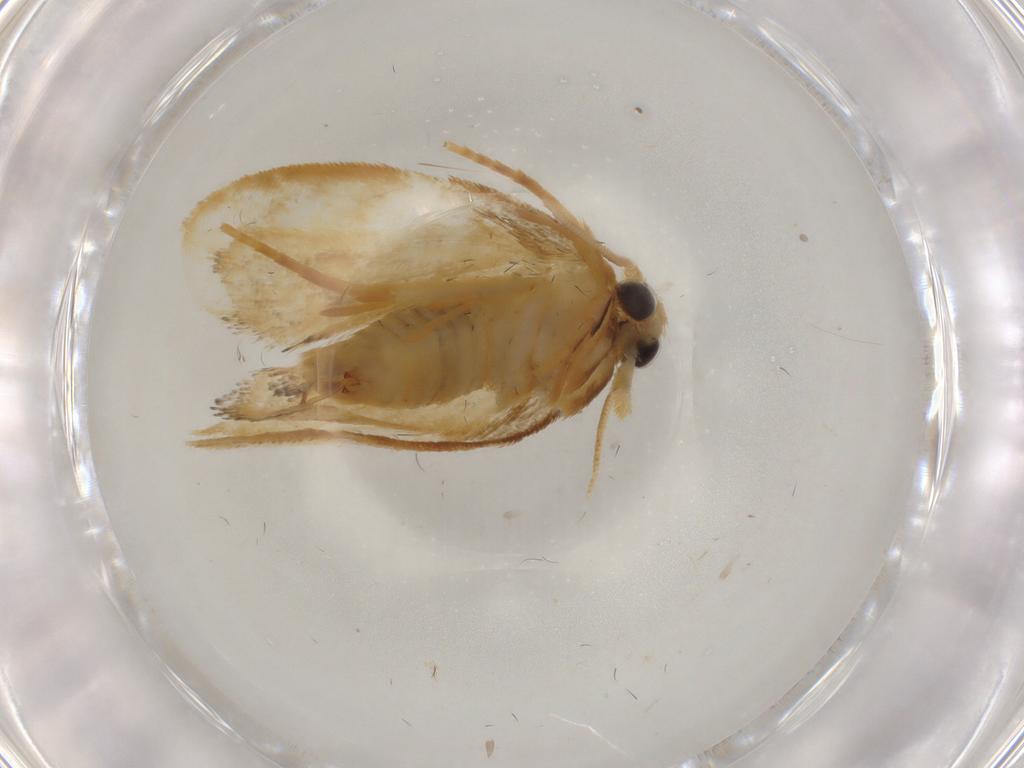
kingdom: Animalia
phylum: Arthropoda
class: Insecta
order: Lepidoptera
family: Psychidae
